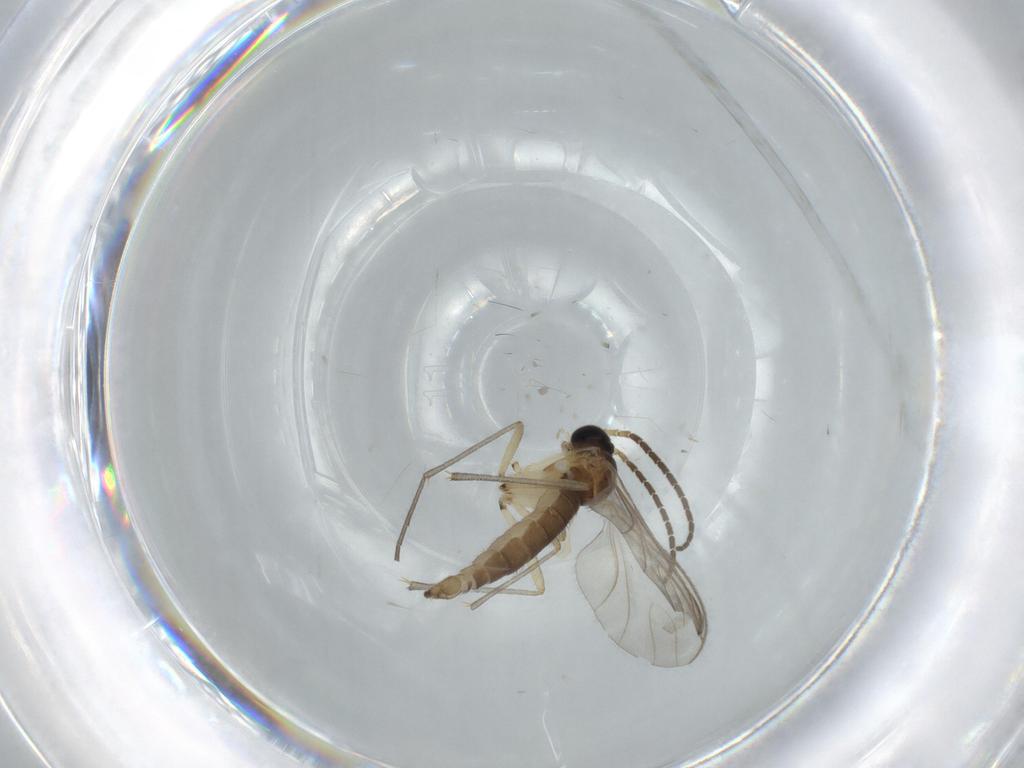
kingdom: Animalia
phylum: Arthropoda
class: Insecta
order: Diptera
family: Sciaridae
